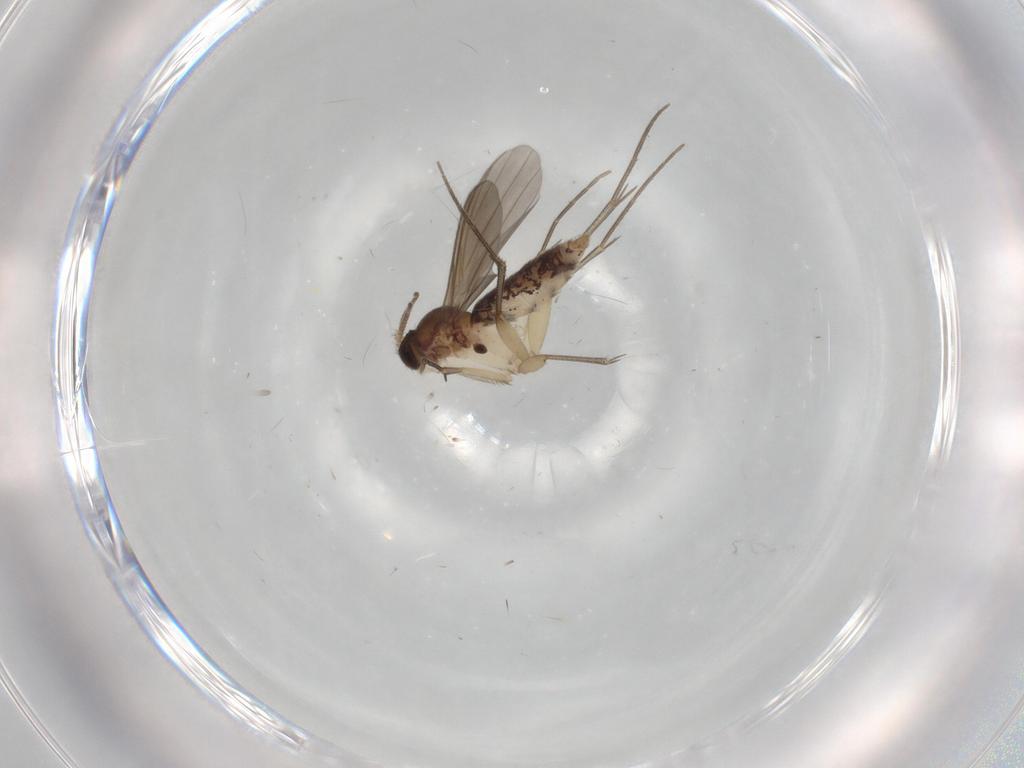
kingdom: Animalia
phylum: Arthropoda
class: Insecta
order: Diptera
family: Mycetophilidae
